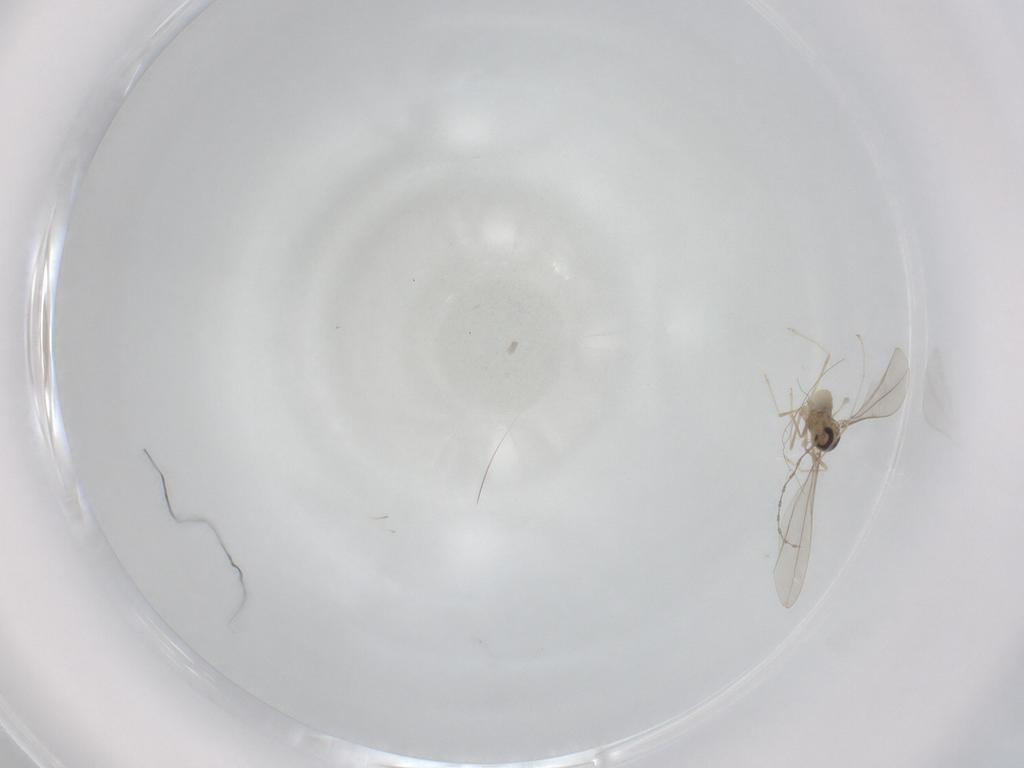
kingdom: Animalia
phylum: Arthropoda
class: Insecta
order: Diptera
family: Cecidomyiidae
